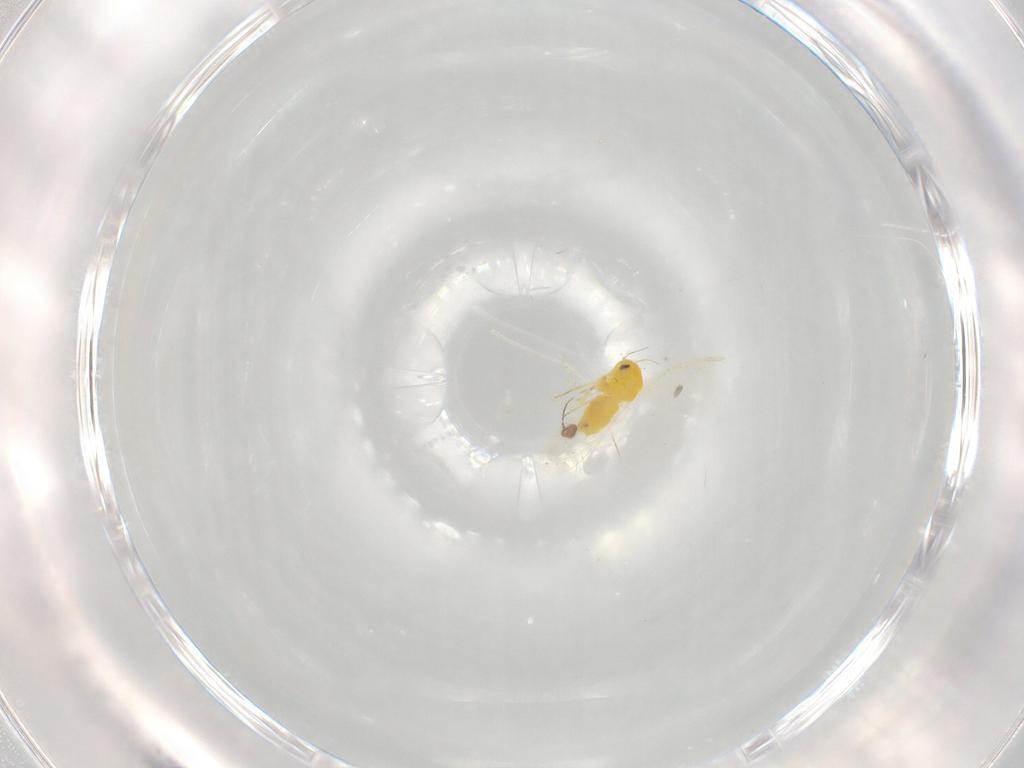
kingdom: Animalia
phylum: Arthropoda
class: Insecta
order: Hemiptera
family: Aleyrodidae
